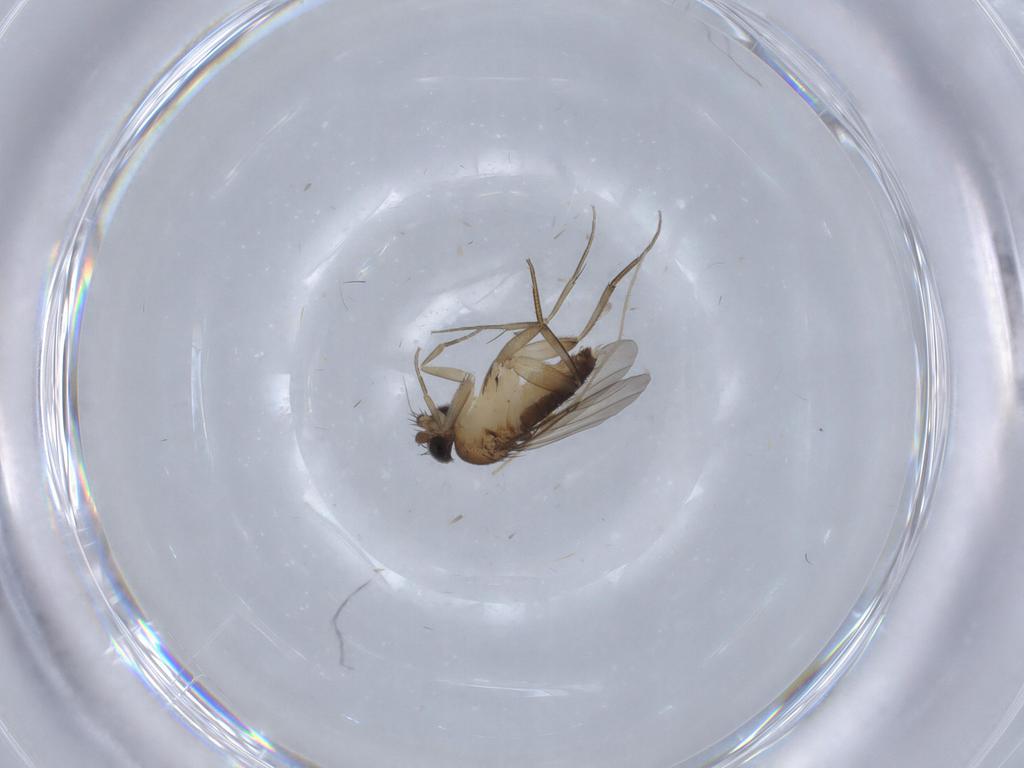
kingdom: Animalia
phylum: Arthropoda
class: Insecta
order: Diptera
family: Phoridae
